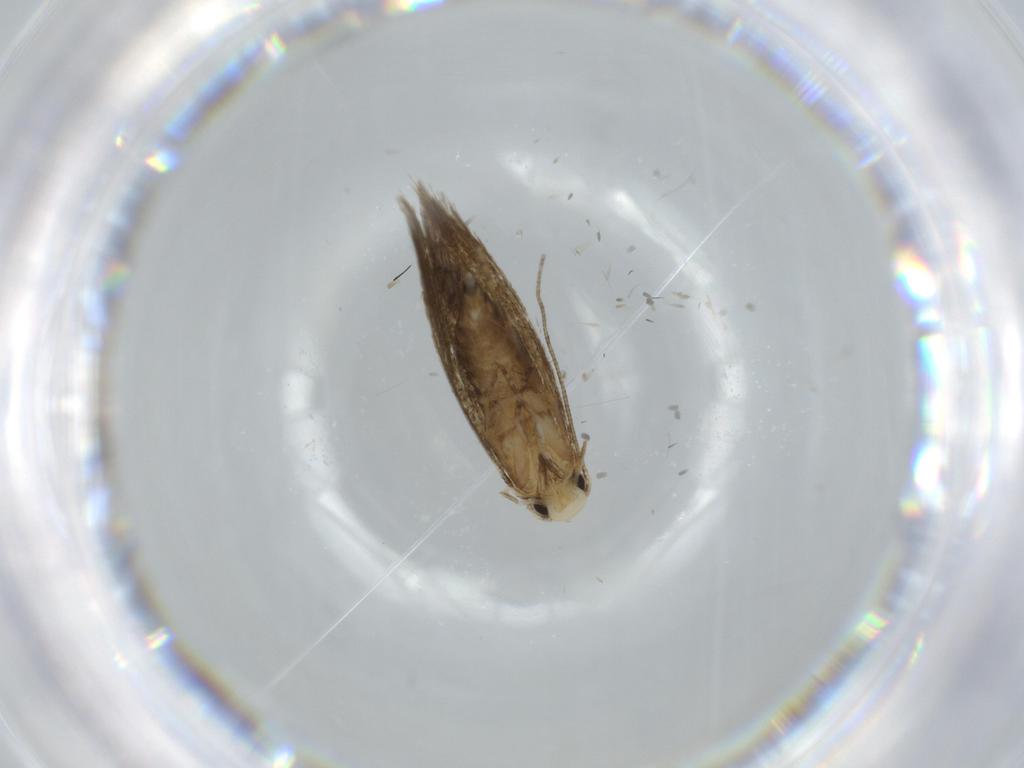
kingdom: Animalia
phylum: Arthropoda
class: Insecta
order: Lepidoptera
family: Tineidae
